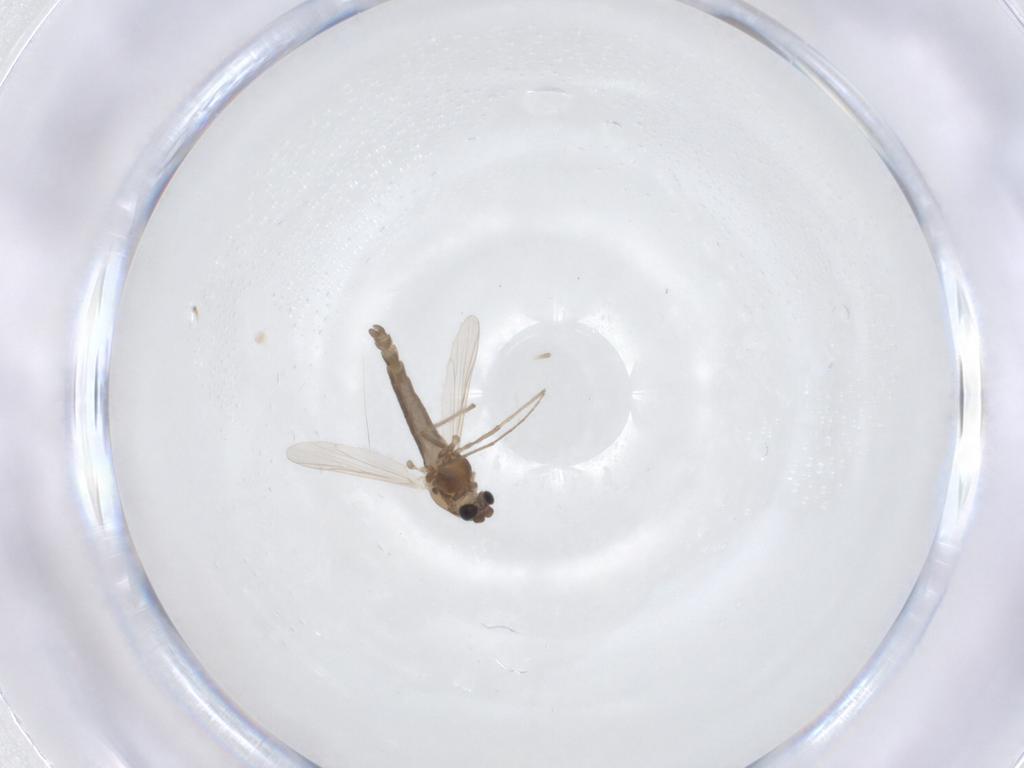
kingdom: Animalia
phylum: Arthropoda
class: Insecta
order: Diptera
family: Chironomidae
